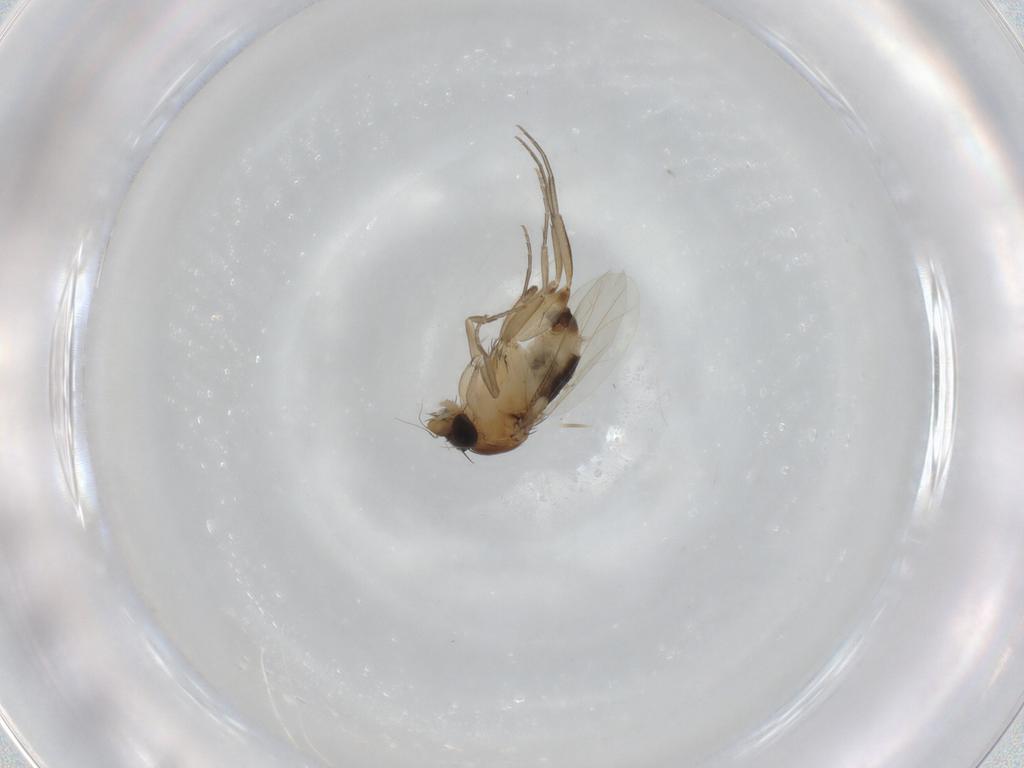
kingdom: Animalia
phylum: Arthropoda
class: Insecta
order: Diptera
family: Phoridae
